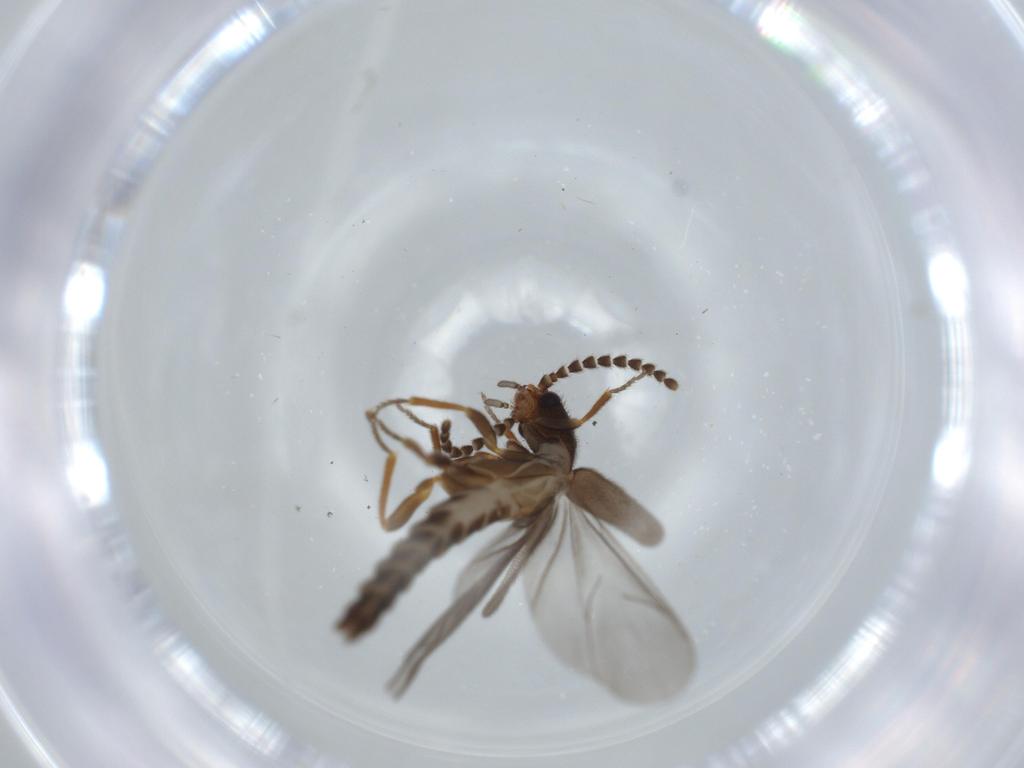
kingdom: Animalia
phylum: Arthropoda
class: Insecta
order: Coleoptera
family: Omethidae
